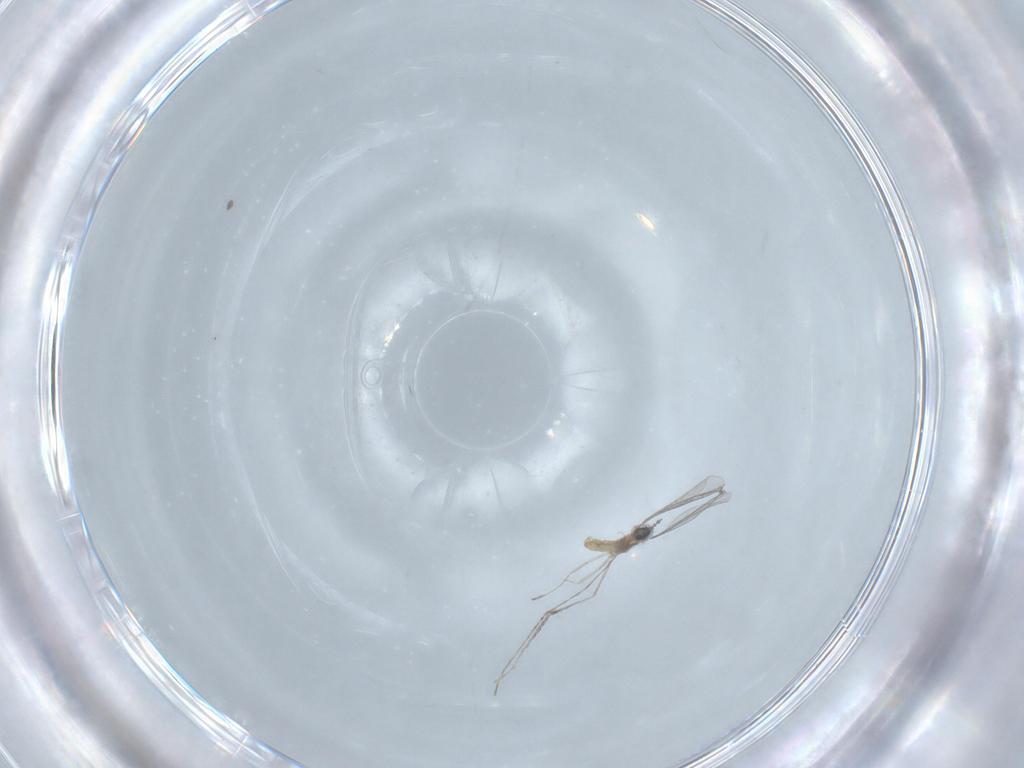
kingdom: Animalia
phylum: Arthropoda
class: Insecta
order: Diptera
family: Cecidomyiidae
